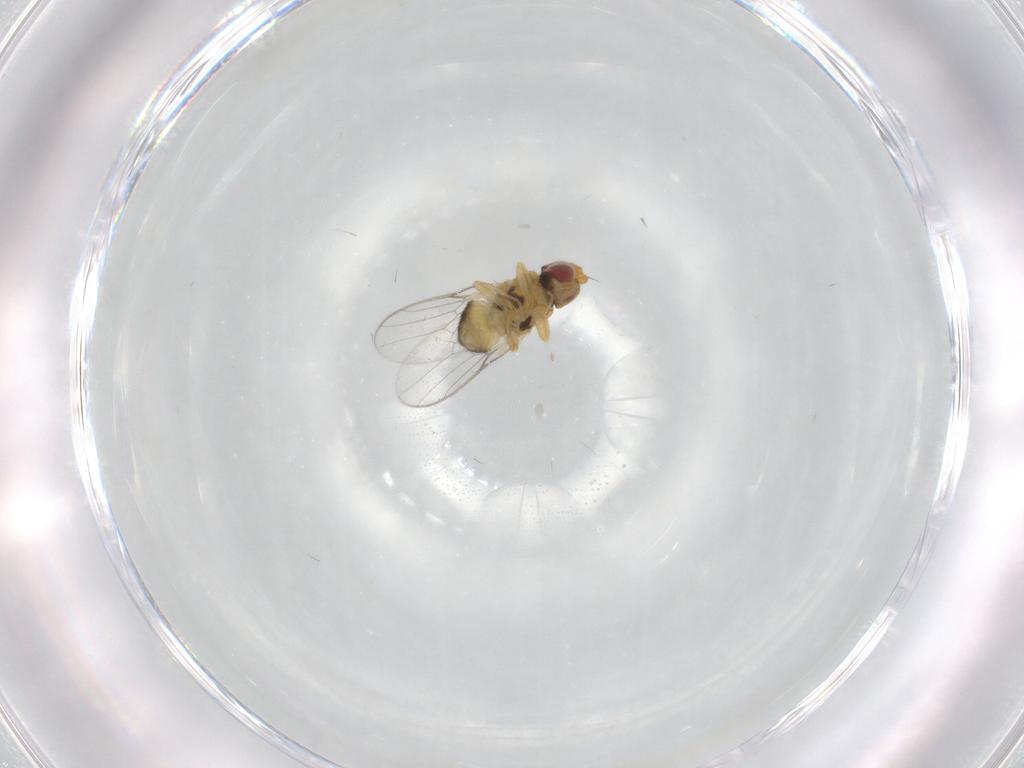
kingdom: Animalia
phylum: Arthropoda
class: Insecta
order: Diptera
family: Chloropidae
